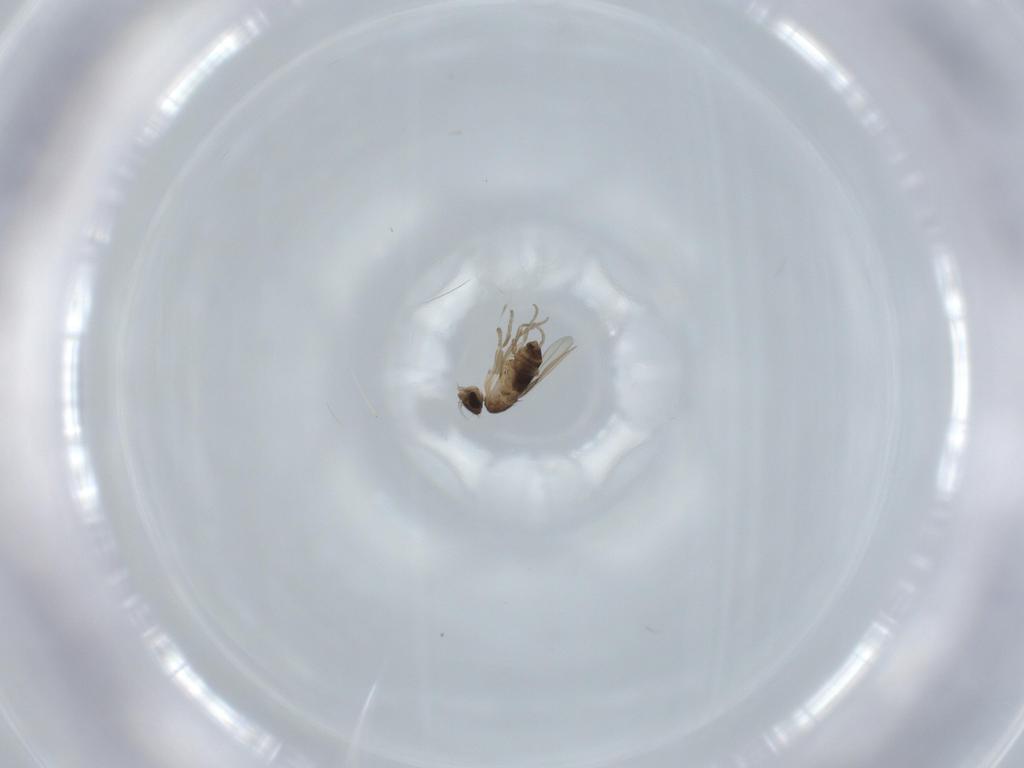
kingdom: Animalia
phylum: Arthropoda
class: Insecta
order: Diptera
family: Phoridae
